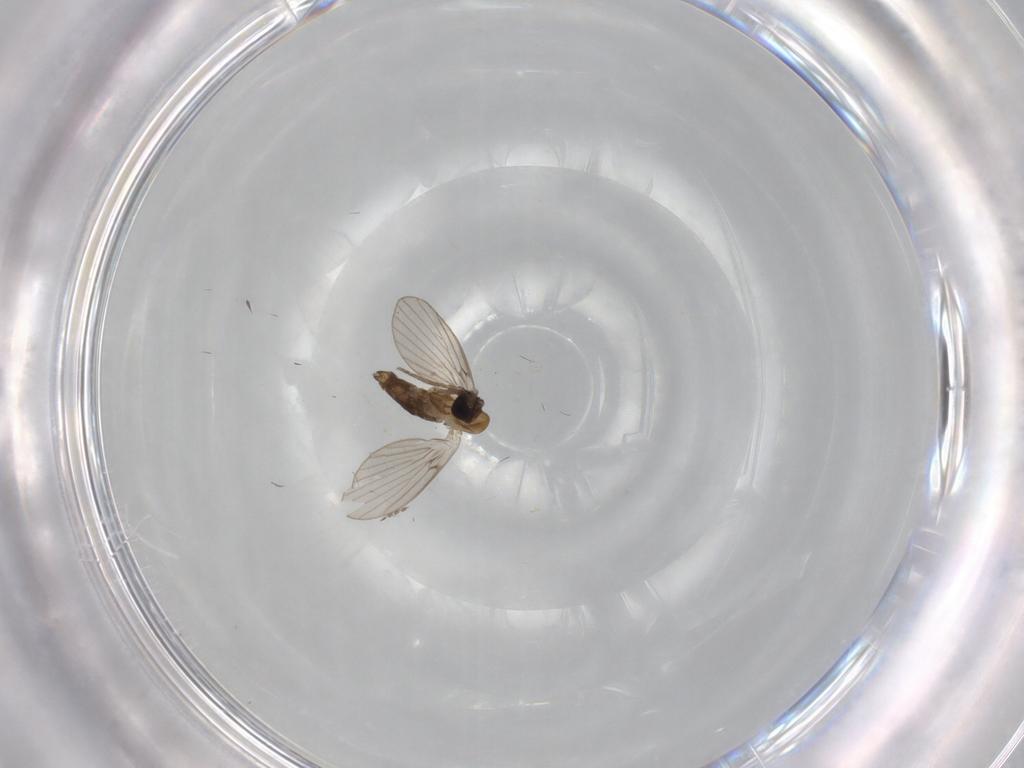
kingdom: Animalia
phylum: Arthropoda
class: Insecta
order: Diptera
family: Psychodidae
